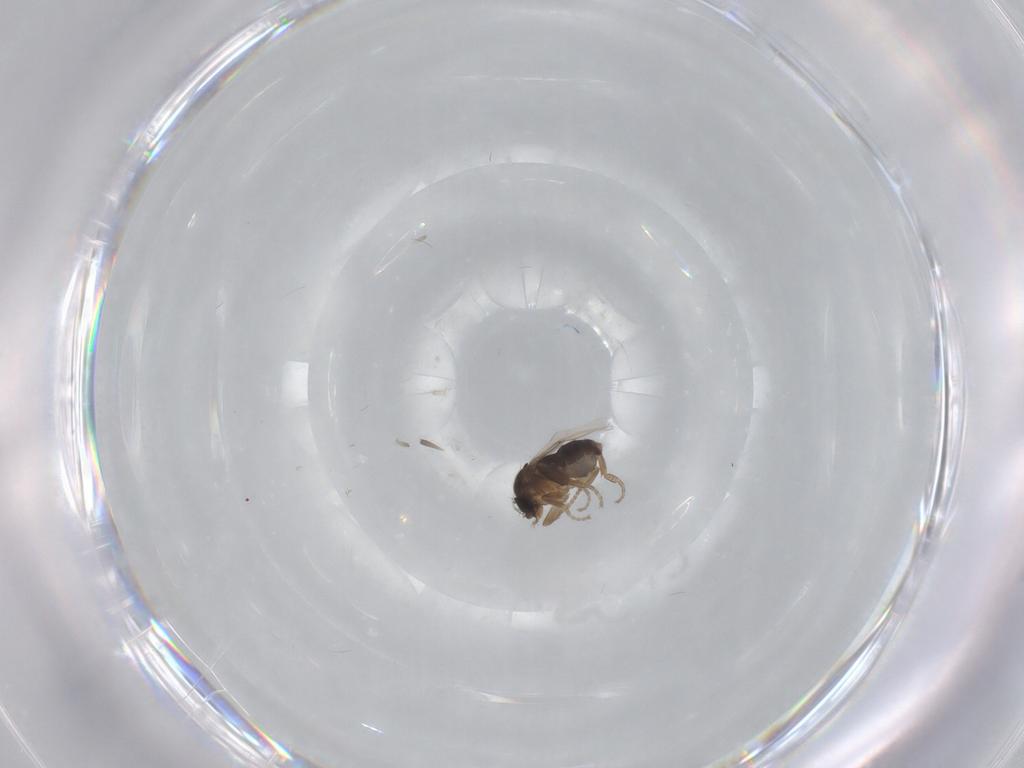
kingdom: Animalia
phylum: Arthropoda
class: Insecta
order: Diptera
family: Phoridae
